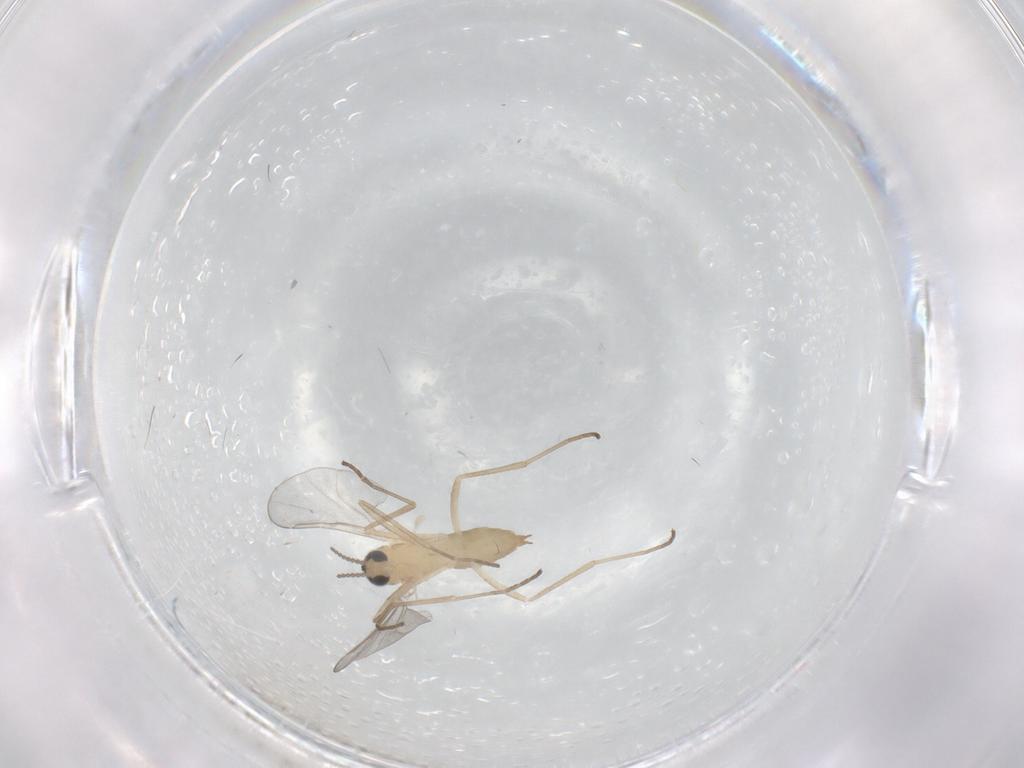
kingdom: Animalia
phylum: Arthropoda
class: Insecta
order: Diptera
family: Cecidomyiidae
